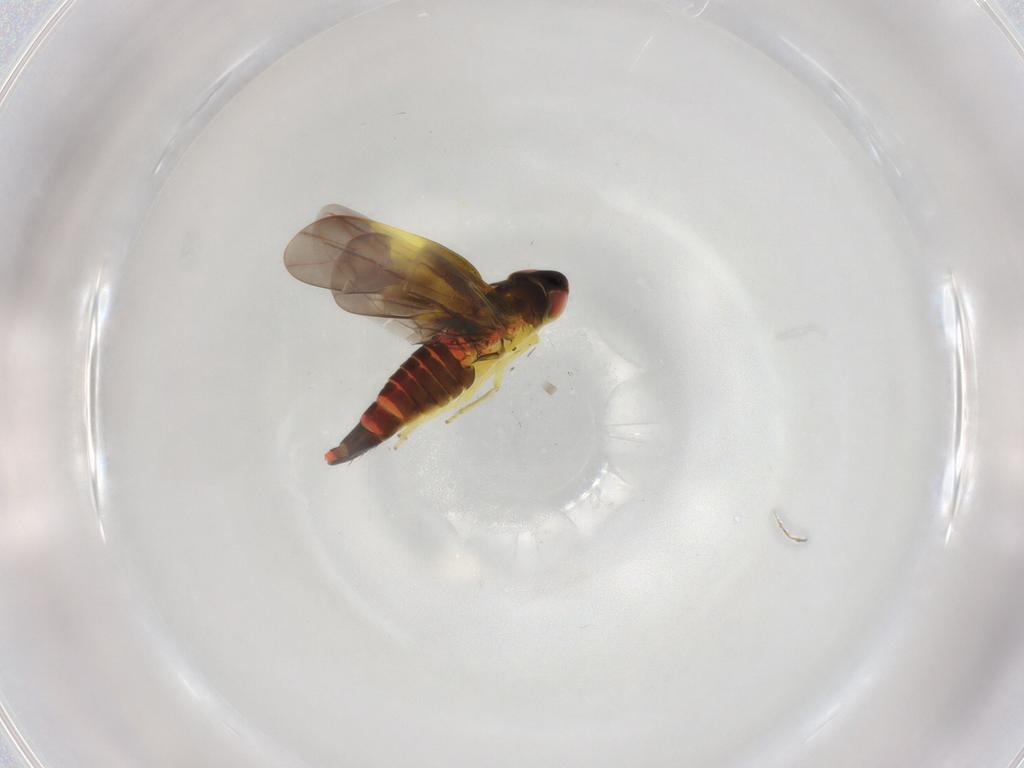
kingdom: Animalia
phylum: Arthropoda
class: Insecta
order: Hemiptera
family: Cicadellidae
